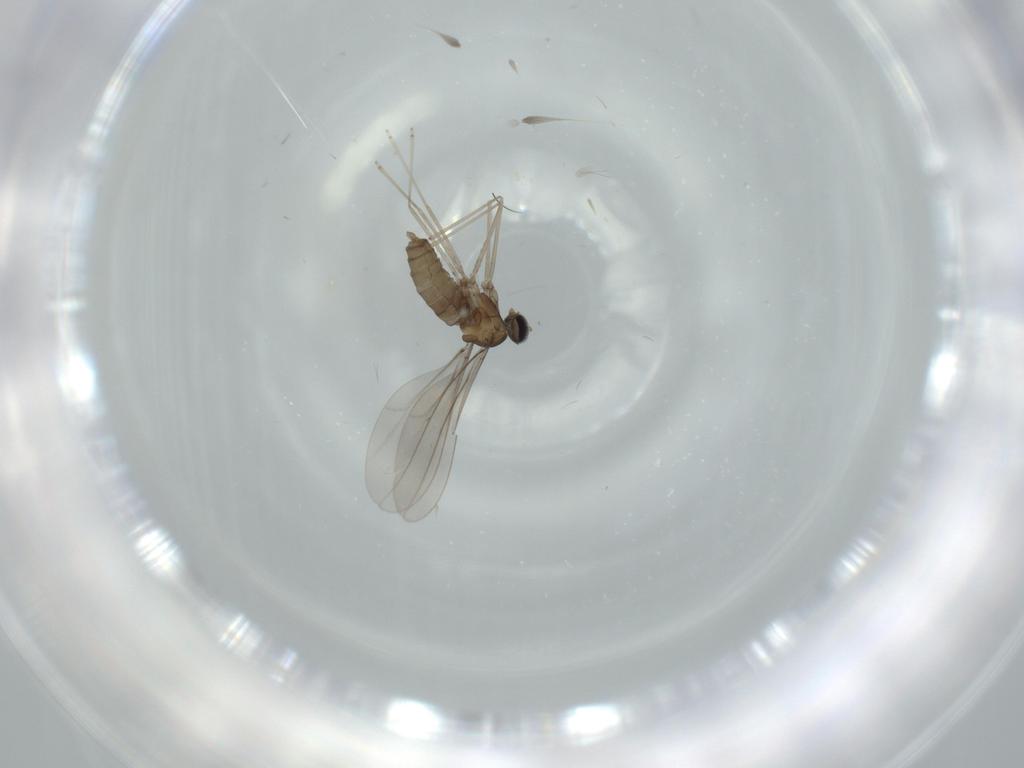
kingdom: Animalia
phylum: Arthropoda
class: Insecta
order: Diptera
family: Cecidomyiidae
